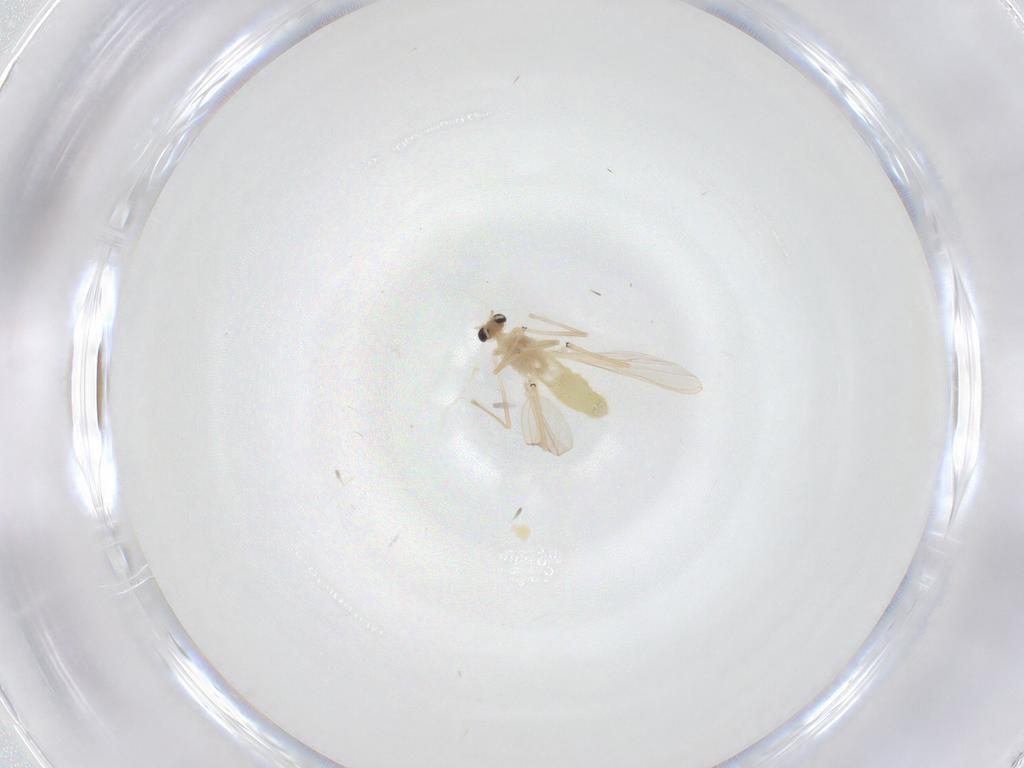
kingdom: Animalia
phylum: Arthropoda
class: Insecta
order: Diptera
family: Chironomidae
